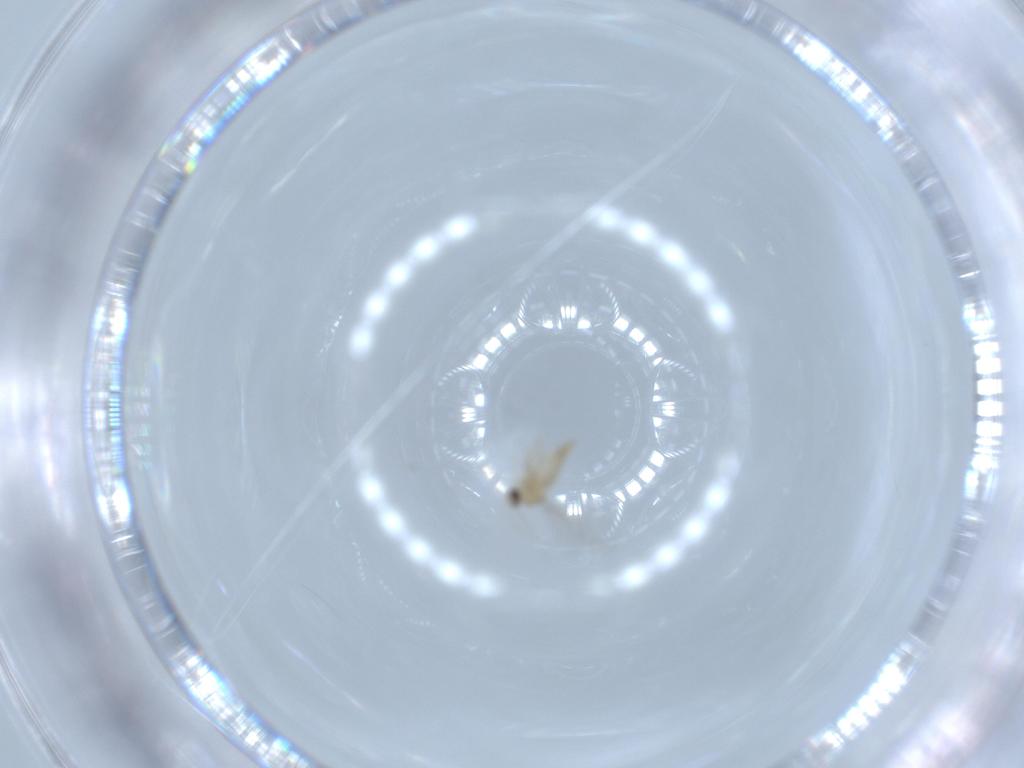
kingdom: Animalia
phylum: Arthropoda
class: Insecta
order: Diptera
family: Chironomidae
